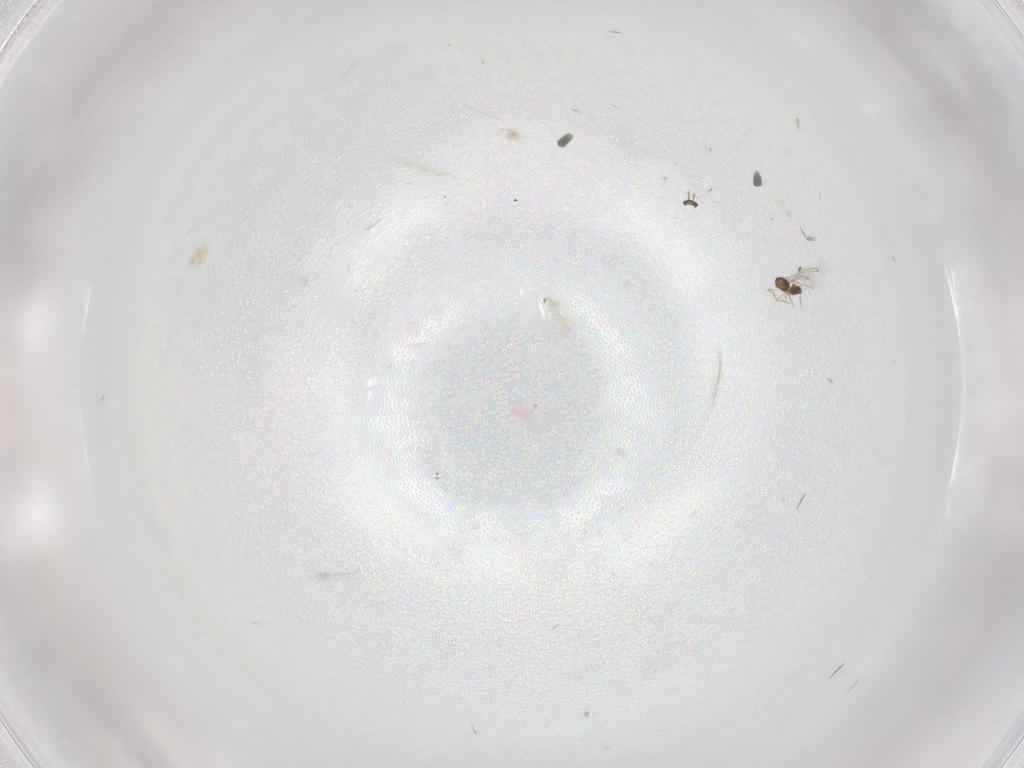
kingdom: Animalia
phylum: Arthropoda
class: Insecta
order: Hymenoptera
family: Mymaridae
